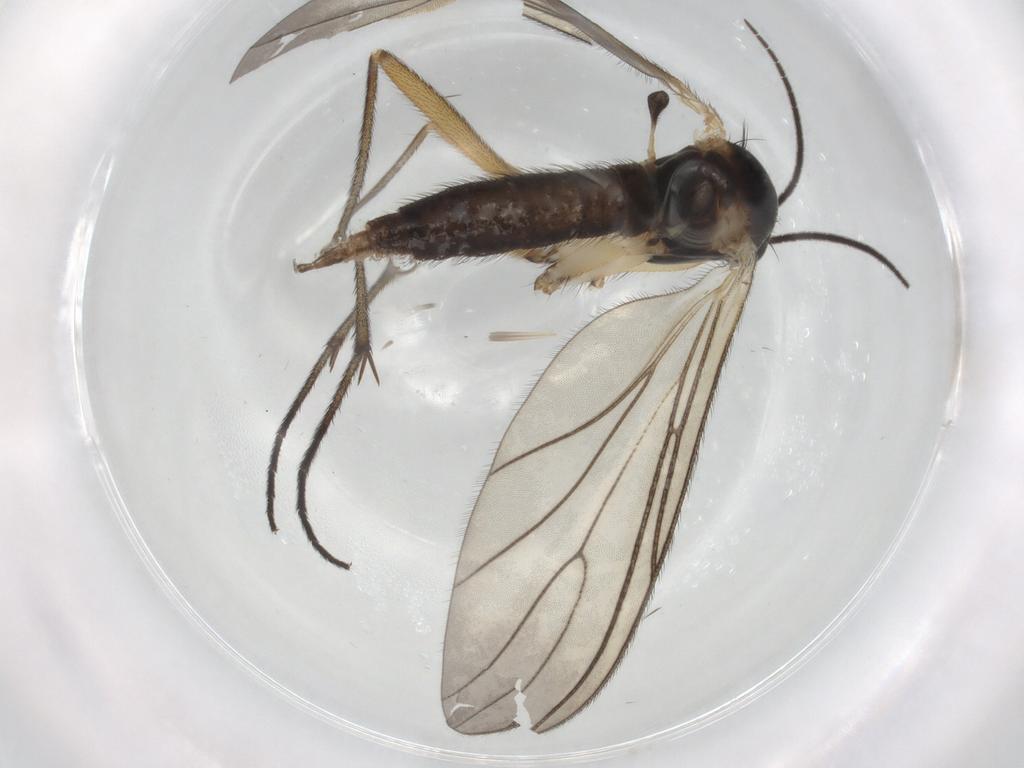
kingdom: Animalia
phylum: Arthropoda
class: Insecta
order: Diptera
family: Sciaridae
